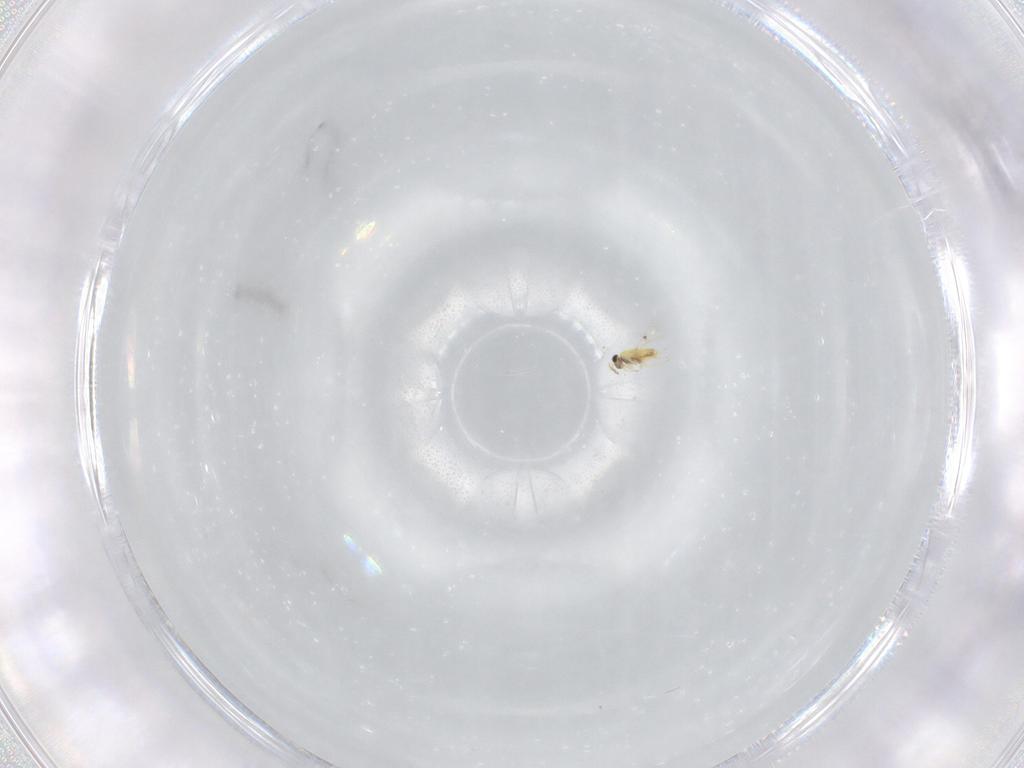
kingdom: Animalia
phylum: Arthropoda
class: Insecta
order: Hymenoptera
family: Trichogrammatidae
